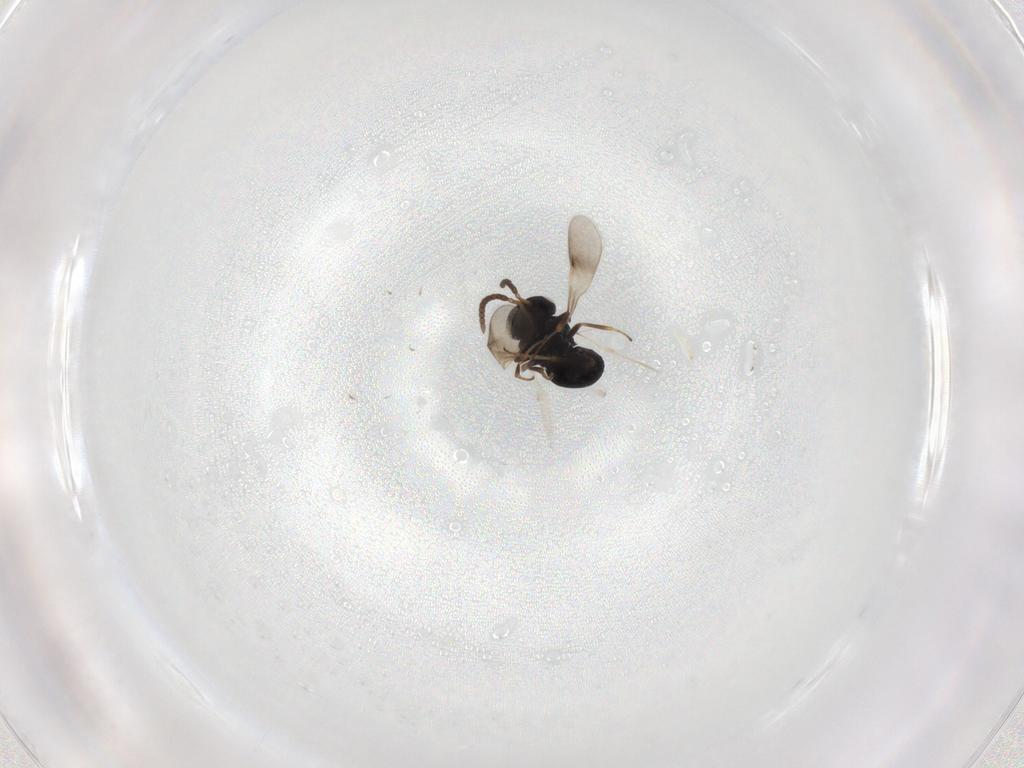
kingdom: Animalia
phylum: Arthropoda
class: Insecta
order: Hymenoptera
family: Scelionidae
